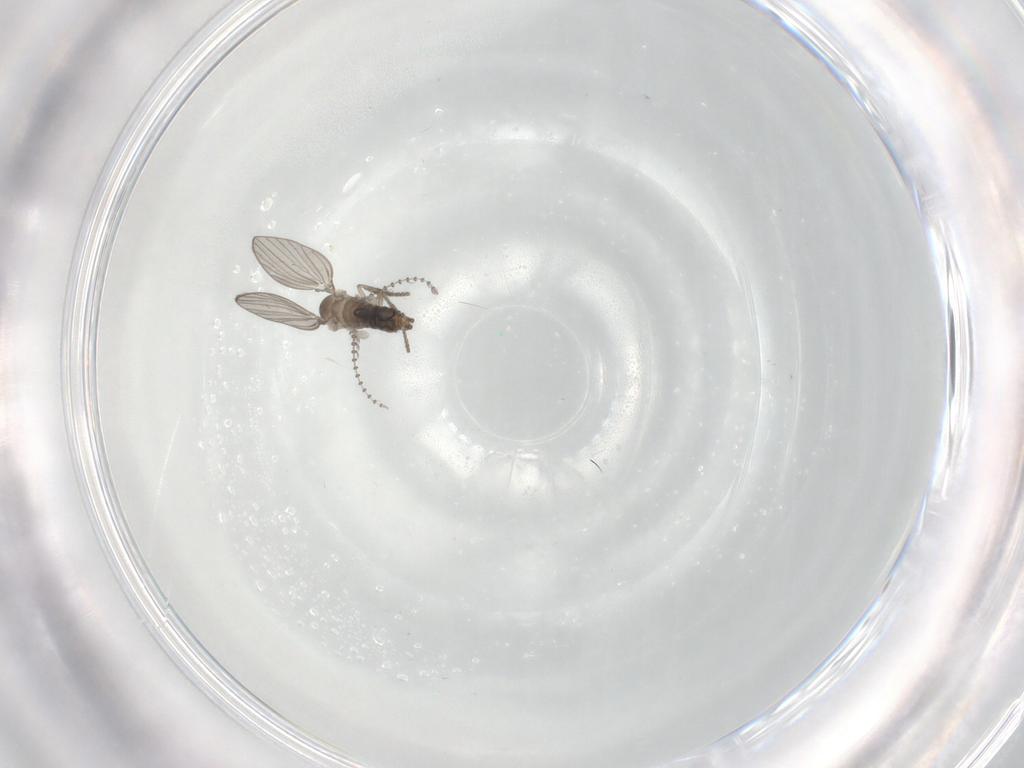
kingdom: Animalia
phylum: Arthropoda
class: Insecta
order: Diptera
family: Psychodidae
